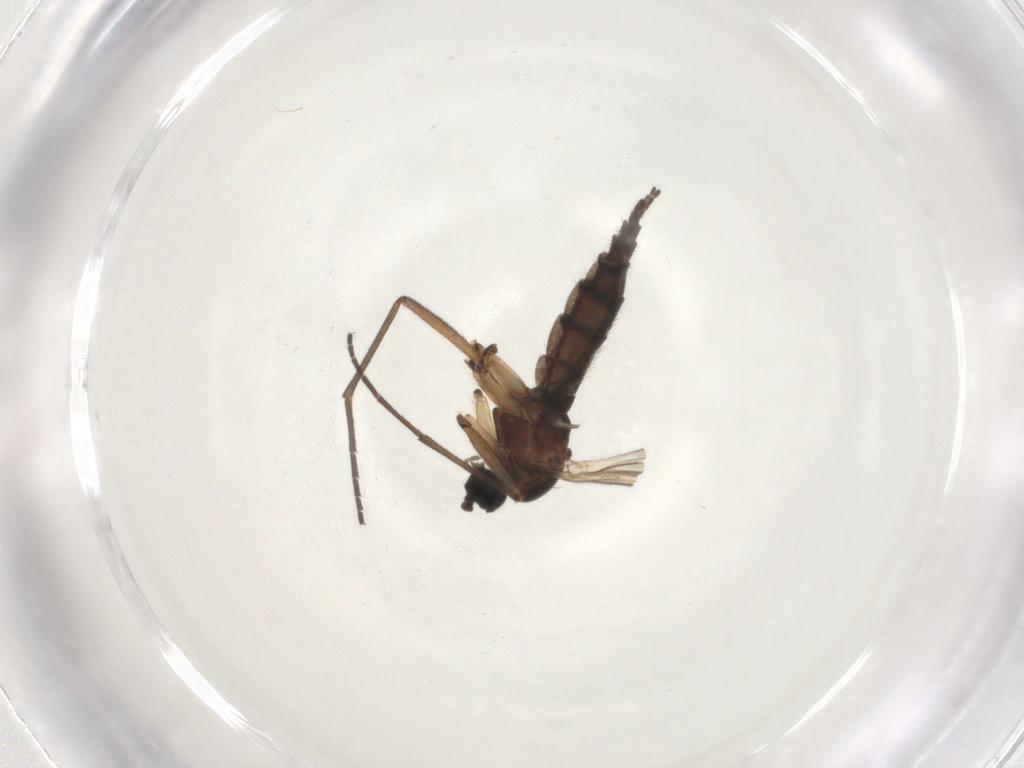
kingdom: Animalia
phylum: Arthropoda
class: Insecta
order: Diptera
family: Sciaridae
